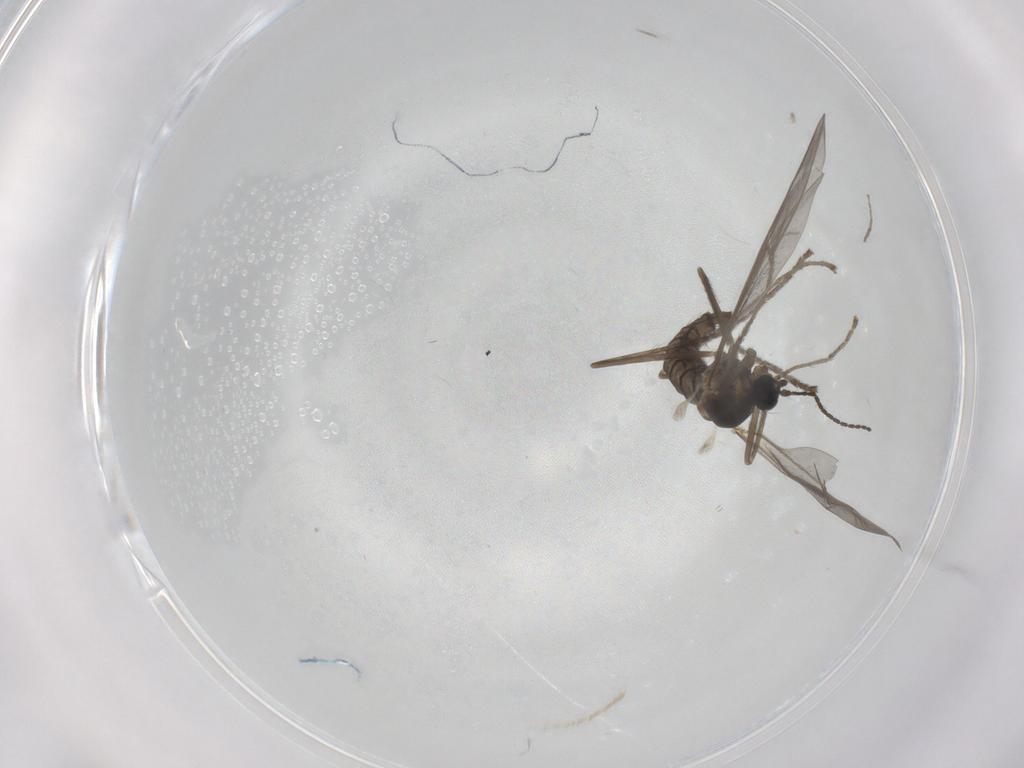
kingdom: Animalia
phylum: Arthropoda
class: Insecta
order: Diptera
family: Cecidomyiidae
